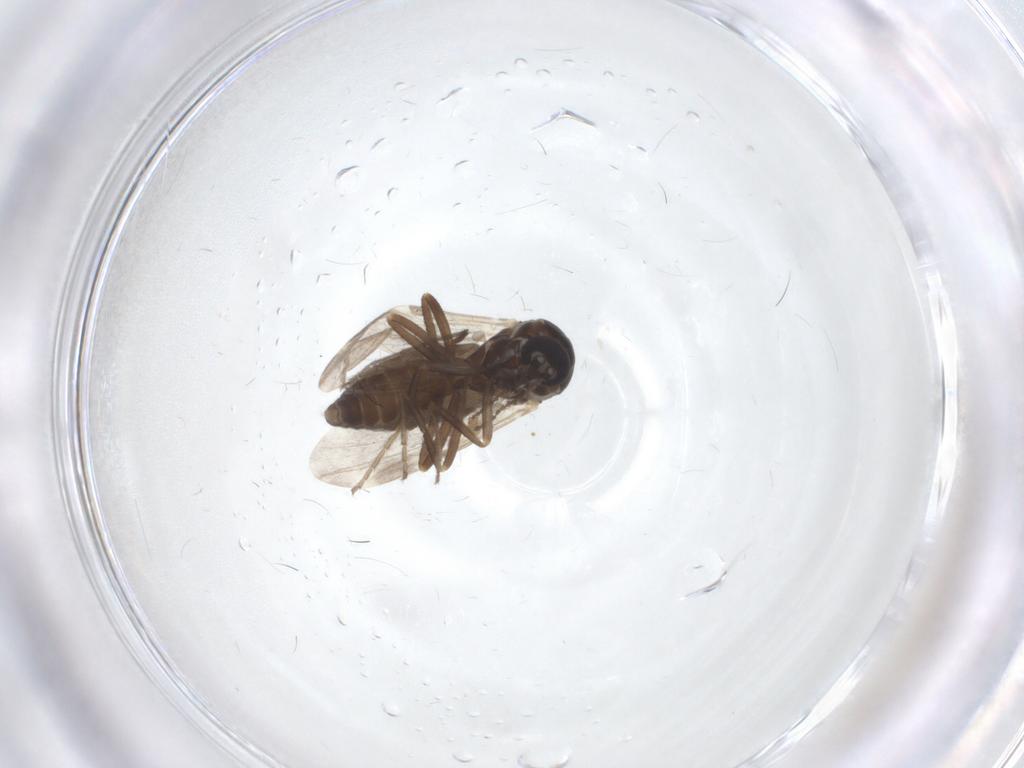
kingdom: Animalia
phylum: Arthropoda
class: Insecta
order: Diptera
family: Ceratopogonidae
